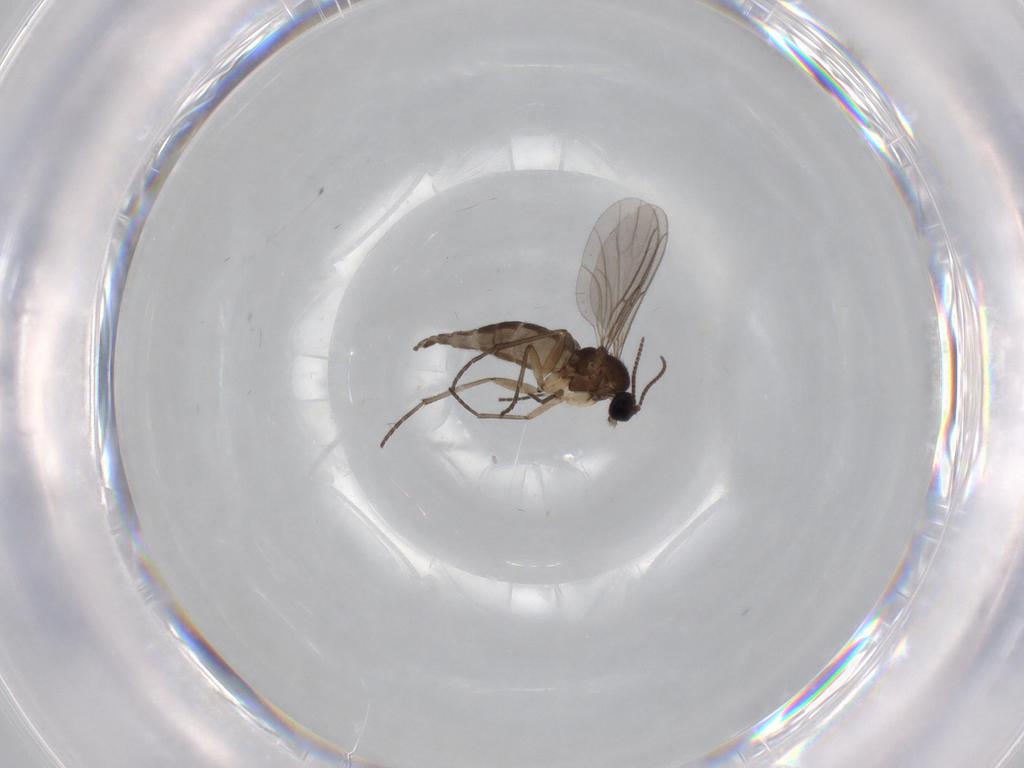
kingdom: Animalia
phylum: Arthropoda
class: Insecta
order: Diptera
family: Sciaridae
